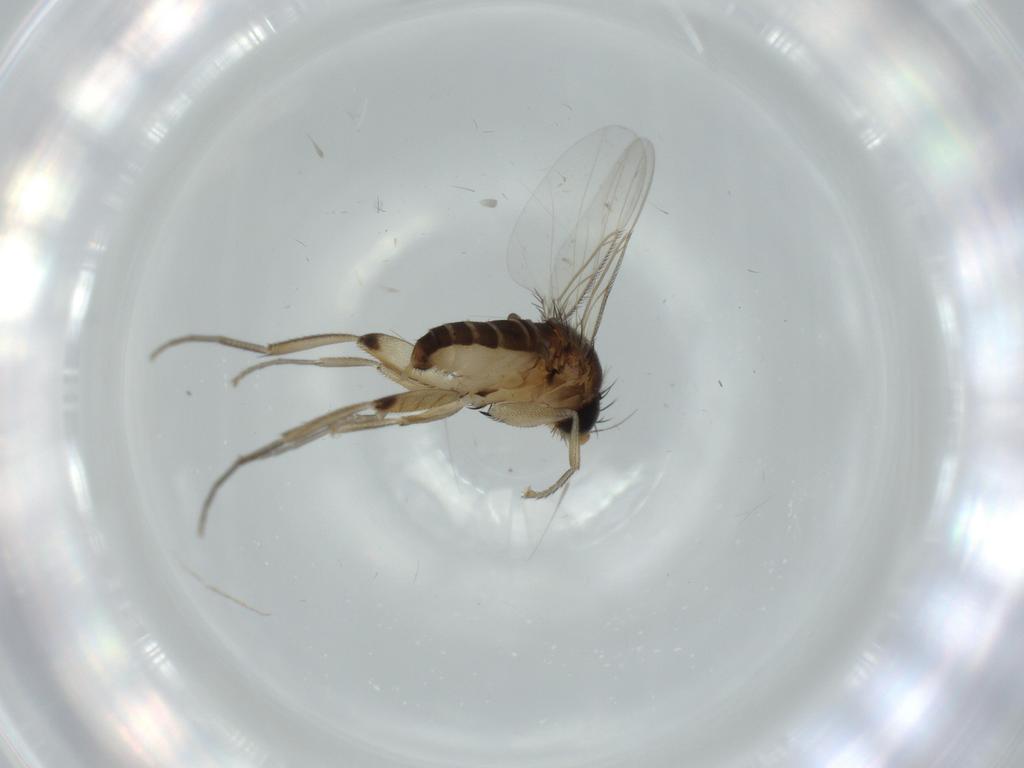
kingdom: Animalia
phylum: Arthropoda
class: Insecta
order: Diptera
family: Phoridae
